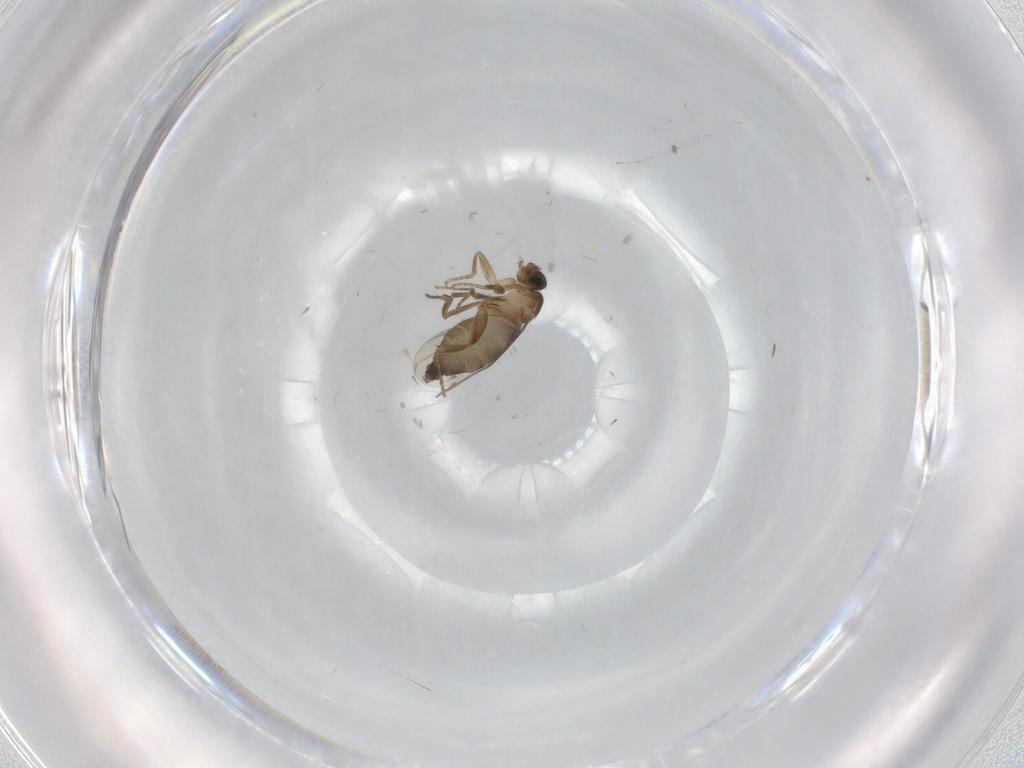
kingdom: Animalia
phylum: Arthropoda
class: Insecta
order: Diptera
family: Phoridae
